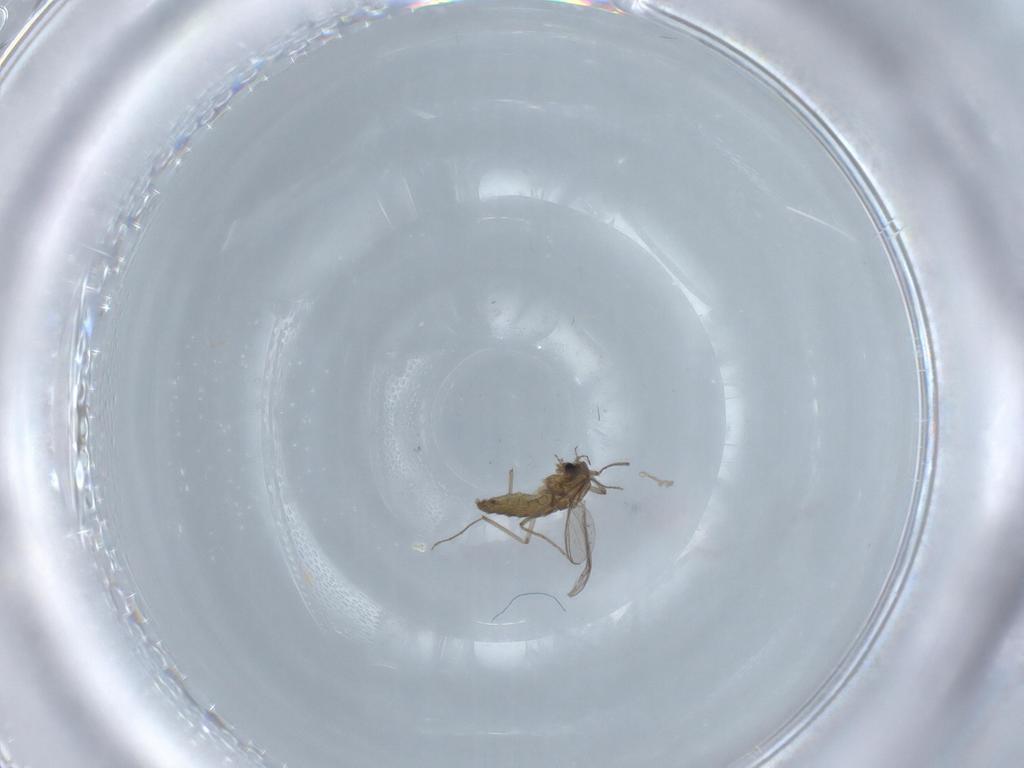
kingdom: Animalia
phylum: Arthropoda
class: Insecta
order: Diptera
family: Chironomidae
